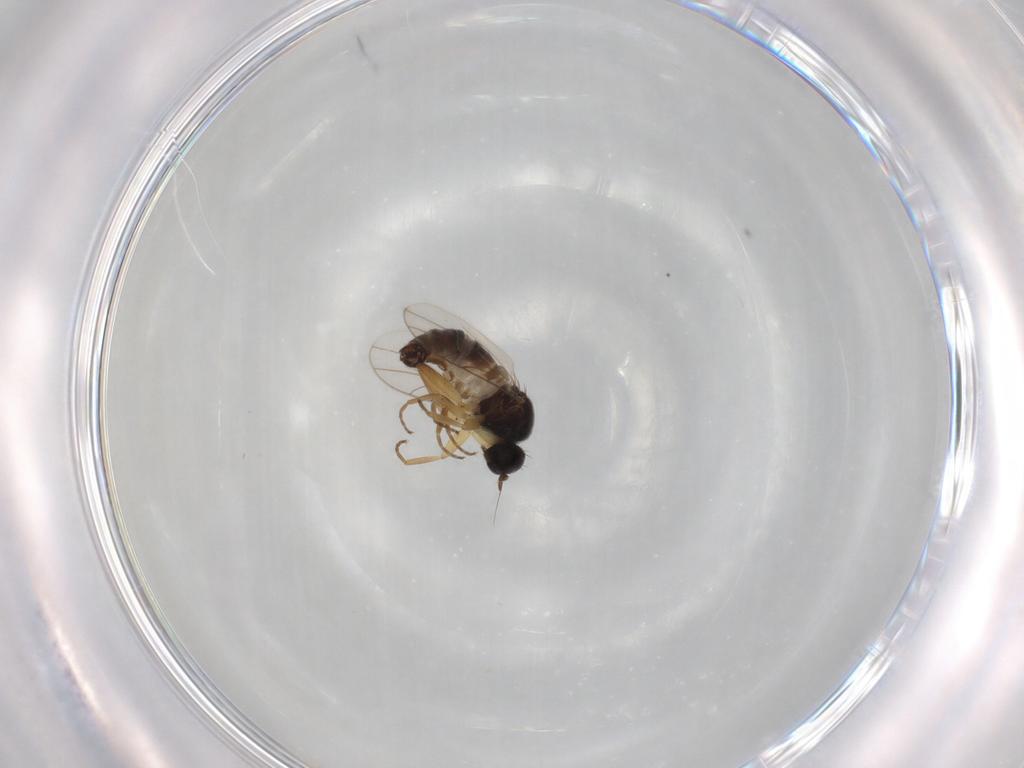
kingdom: Animalia
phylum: Arthropoda
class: Insecta
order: Diptera
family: Hybotidae
